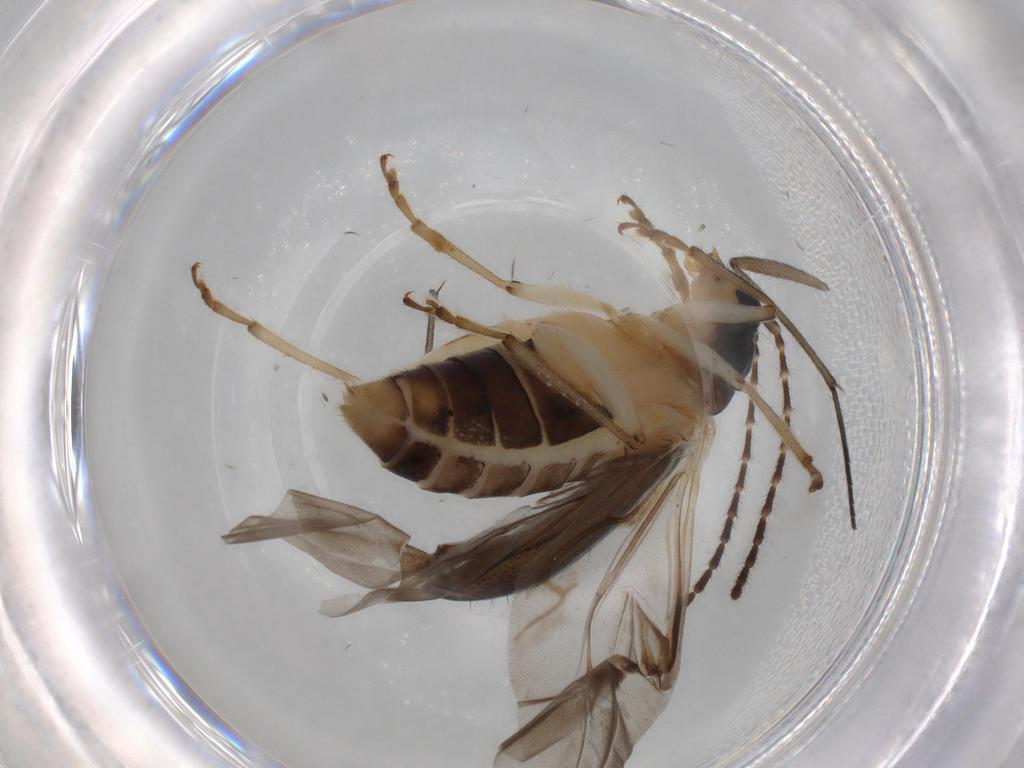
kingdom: Animalia
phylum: Arthropoda
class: Insecta
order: Coleoptera
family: Chrysomelidae
